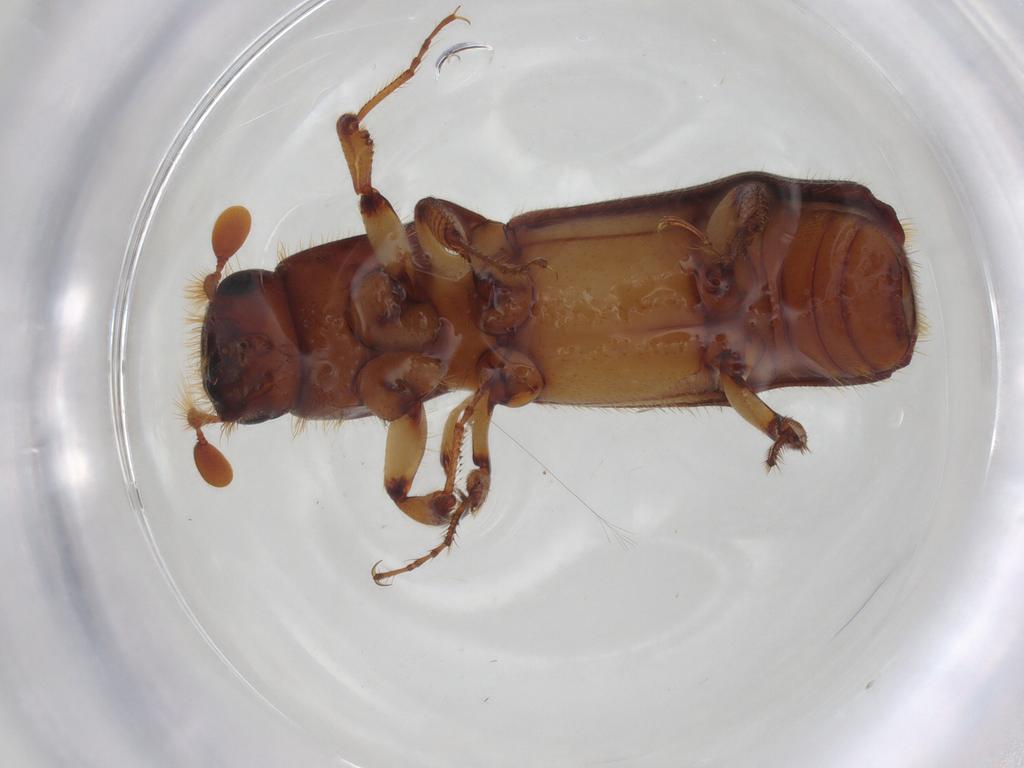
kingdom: Animalia
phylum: Arthropoda
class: Insecta
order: Coleoptera
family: Curculionidae
